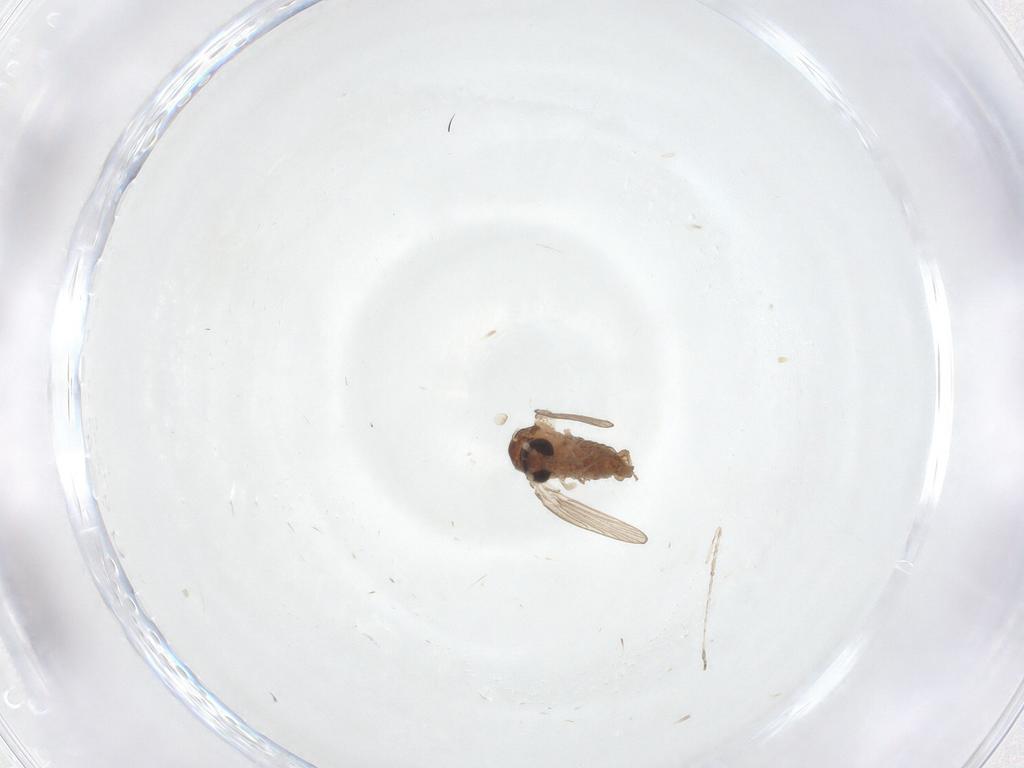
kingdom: Animalia
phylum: Arthropoda
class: Insecta
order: Diptera
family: Psychodidae
